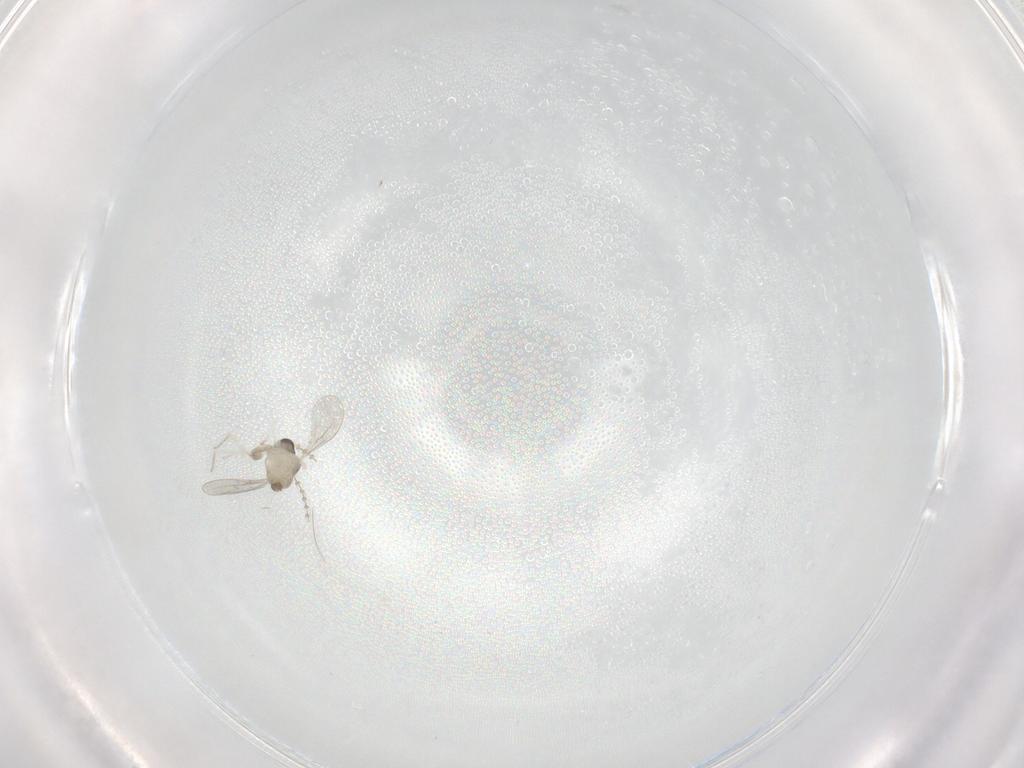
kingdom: Animalia
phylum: Arthropoda
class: Insecta
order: Diptera
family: Cecidomyiidae
